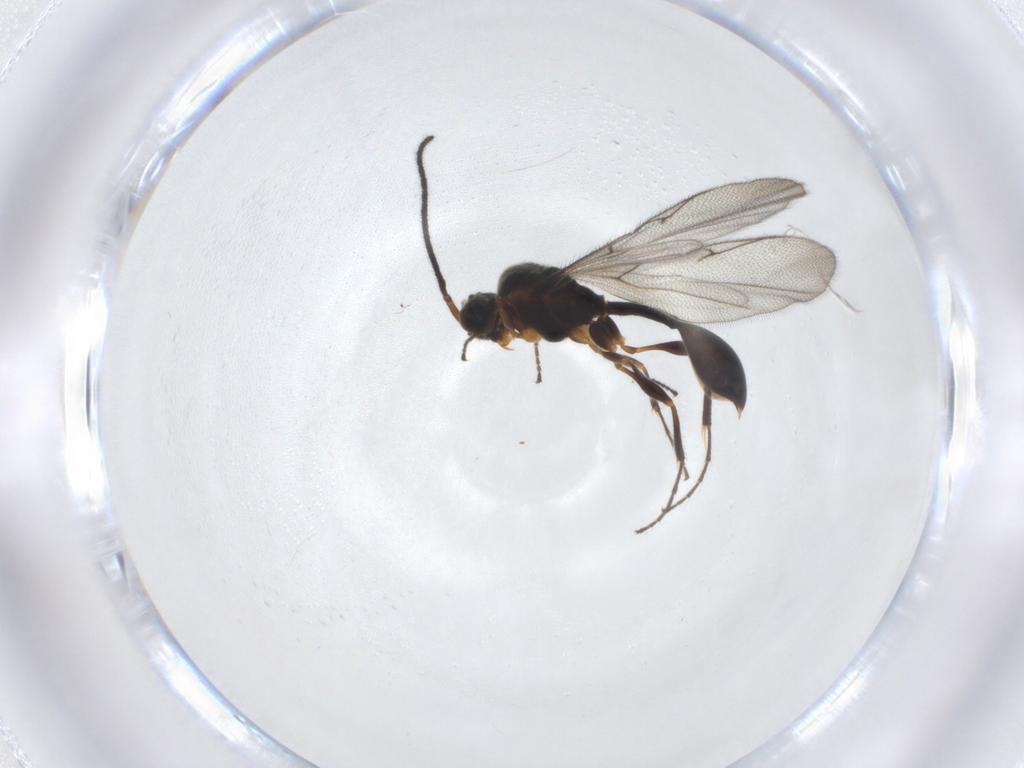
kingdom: Animalia
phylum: Arthropoda
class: Insecta
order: Hymenoptera
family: Diapriidae
